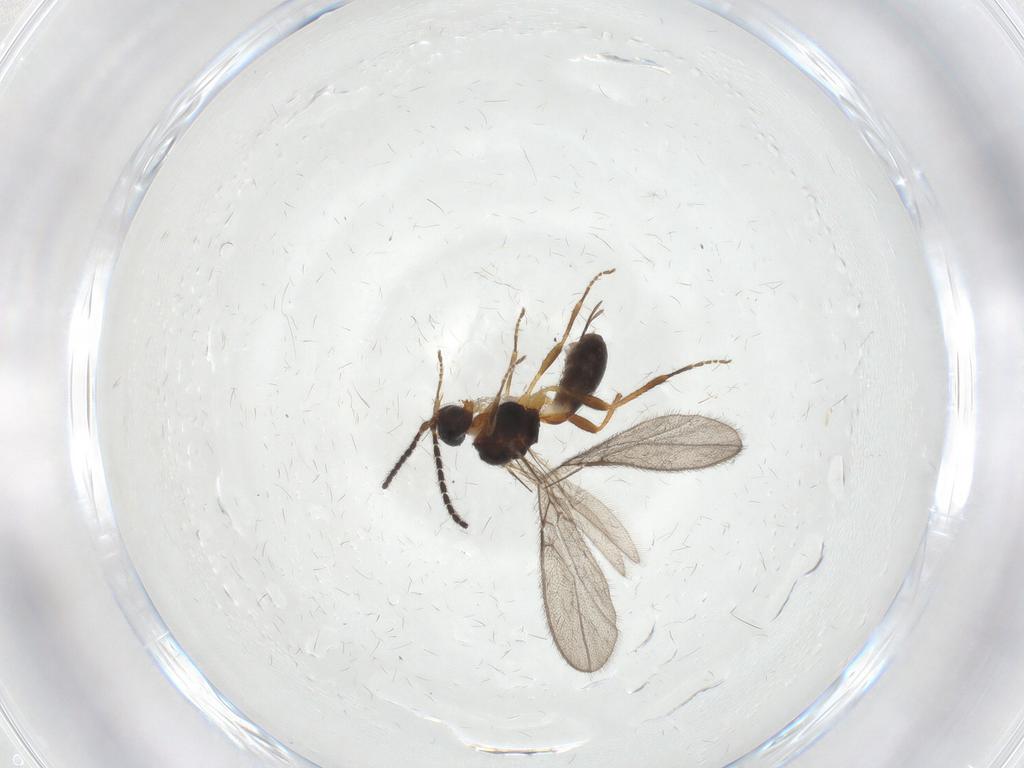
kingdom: Animalia
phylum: Arthropoda
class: Insecta
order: Hymenoptera
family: Braconidae
